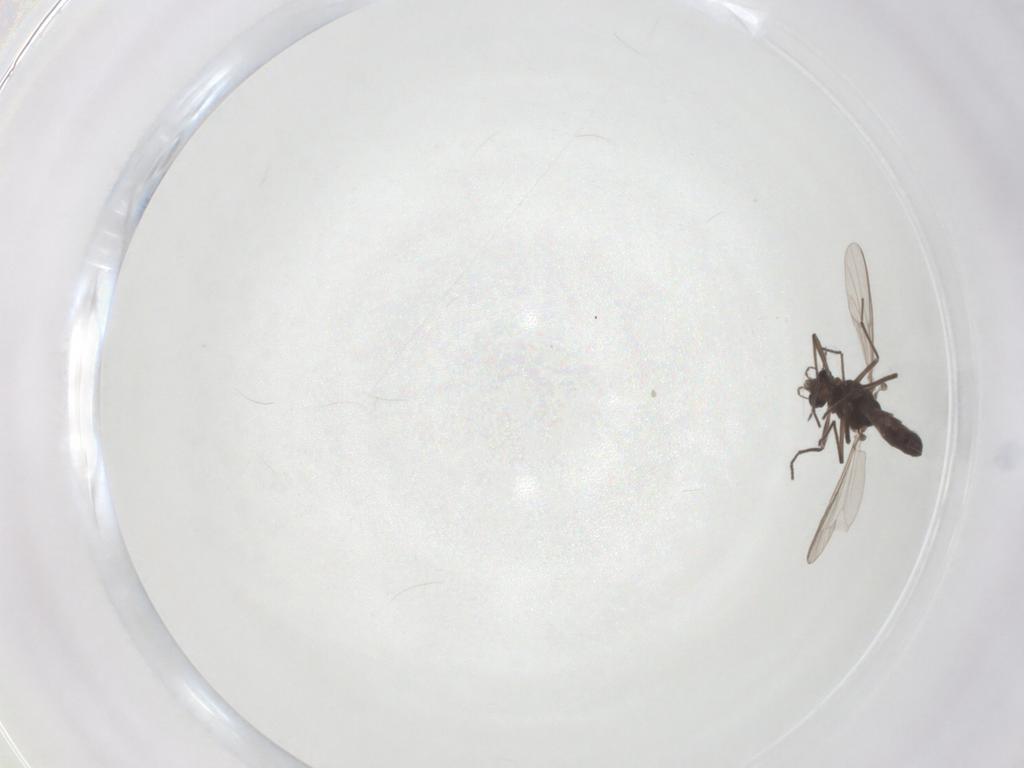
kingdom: Animalia
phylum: Arthropoda
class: Insecta
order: Diptera
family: Chironomidae
